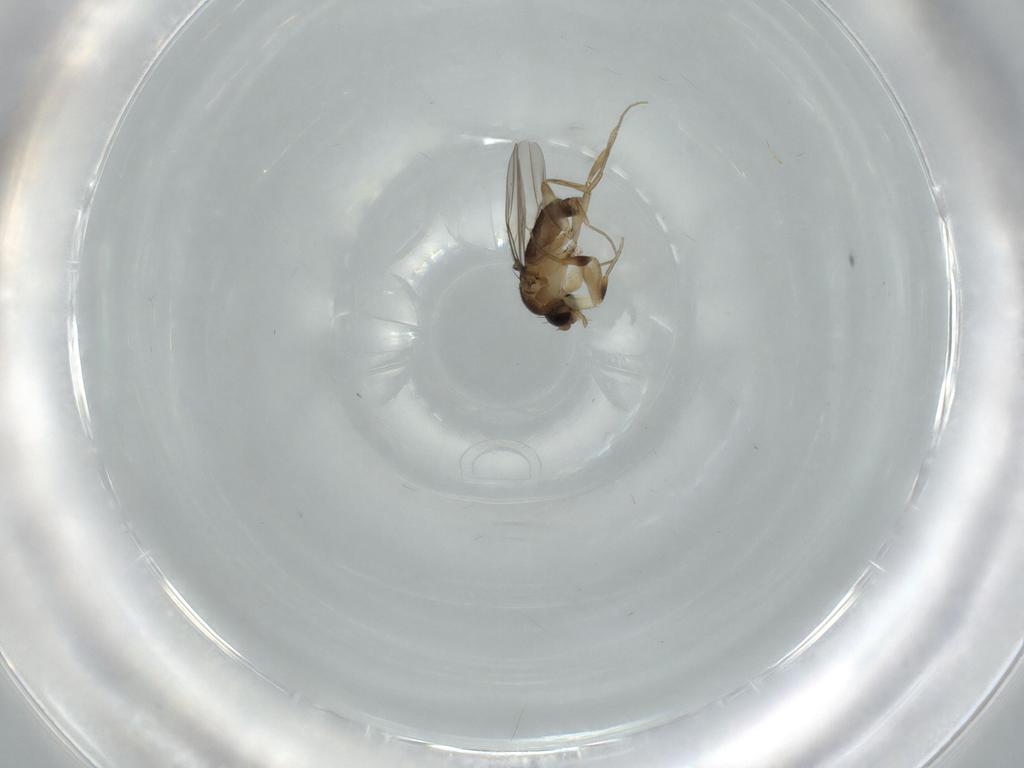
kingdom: Animalia
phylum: Arthropoda
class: Insecta
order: Diptera
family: Phoridae
